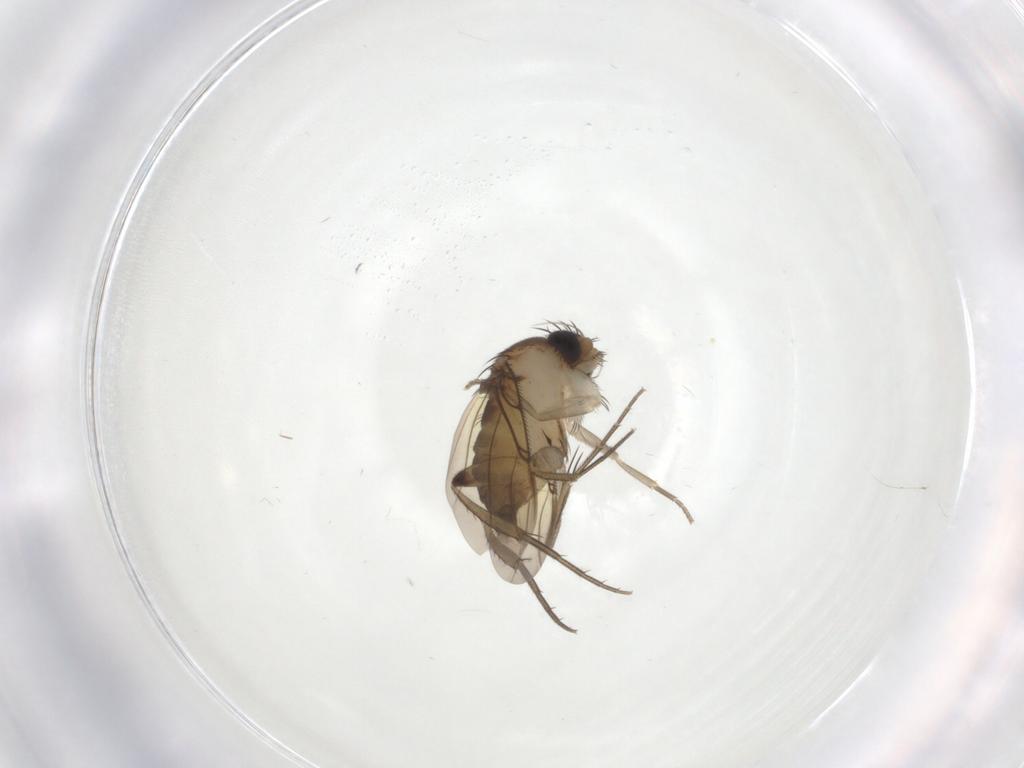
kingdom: Animalia
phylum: Arthropoda
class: Insecta
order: Diptera
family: Phoridae
